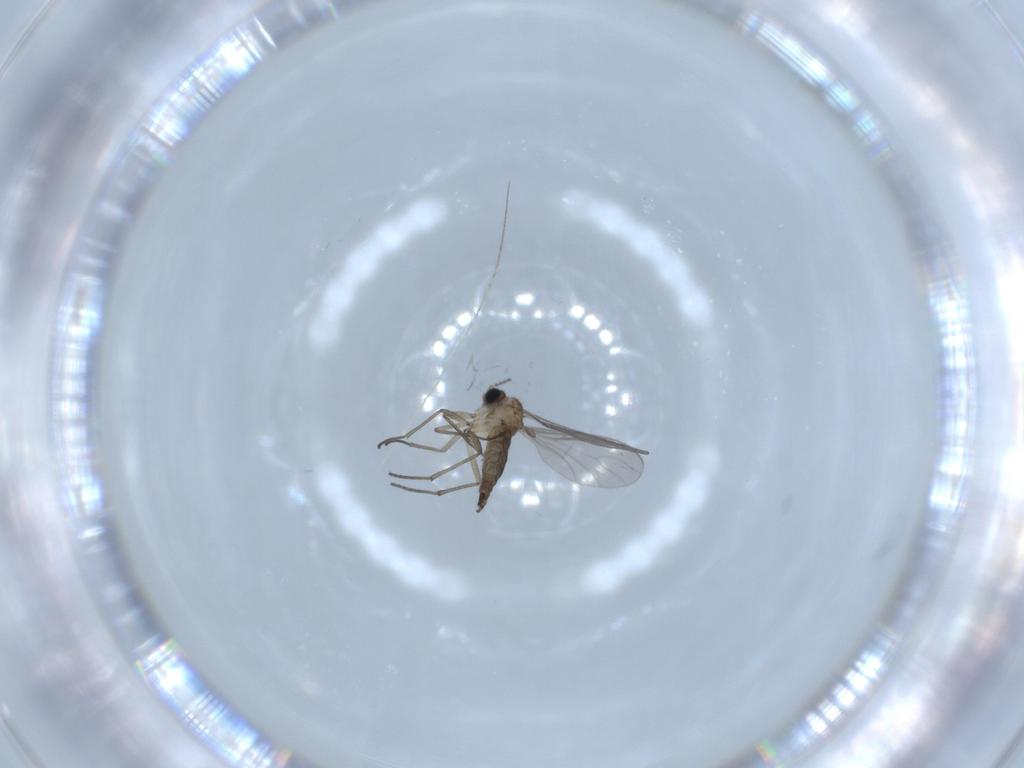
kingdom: Animalia
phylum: Arthropoda
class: Insecta
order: Diptera
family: Sciaridae
